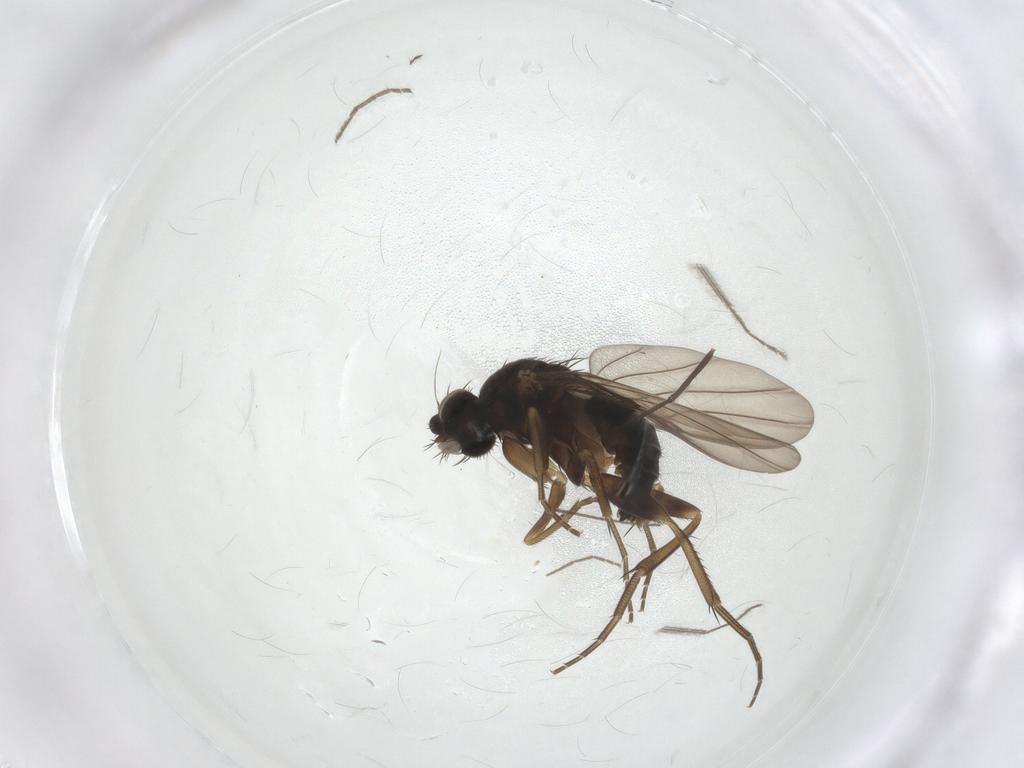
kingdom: Animalia
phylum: Arthropoda
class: Insecta
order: Diptera
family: Phoridae
